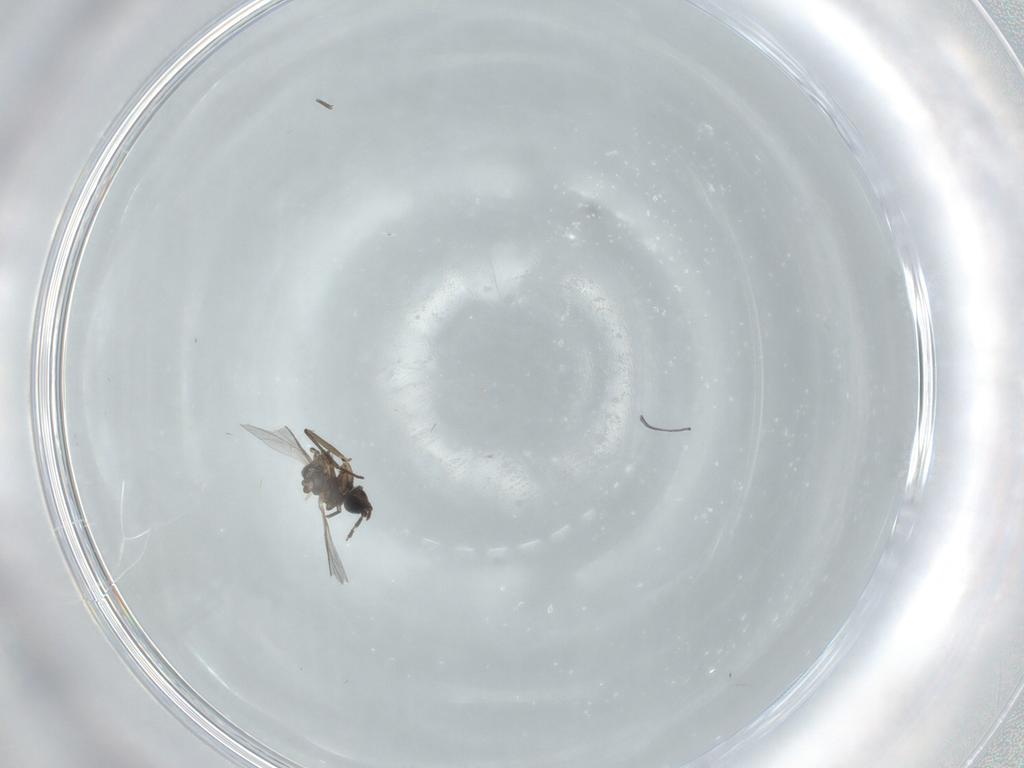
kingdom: Animalia
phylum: Arthropoda
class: Insecta
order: Diptera
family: Sciaridae
